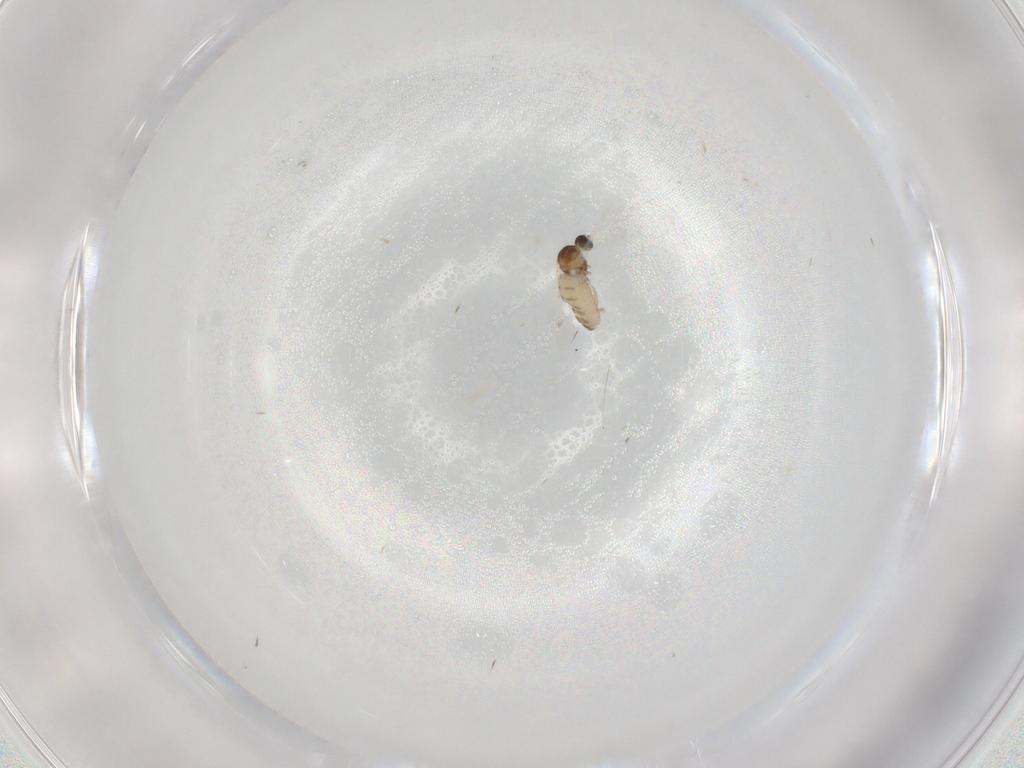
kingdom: Animalia
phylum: Arthropoda
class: Insecta
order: Diptera
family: Cecidomyiidae
